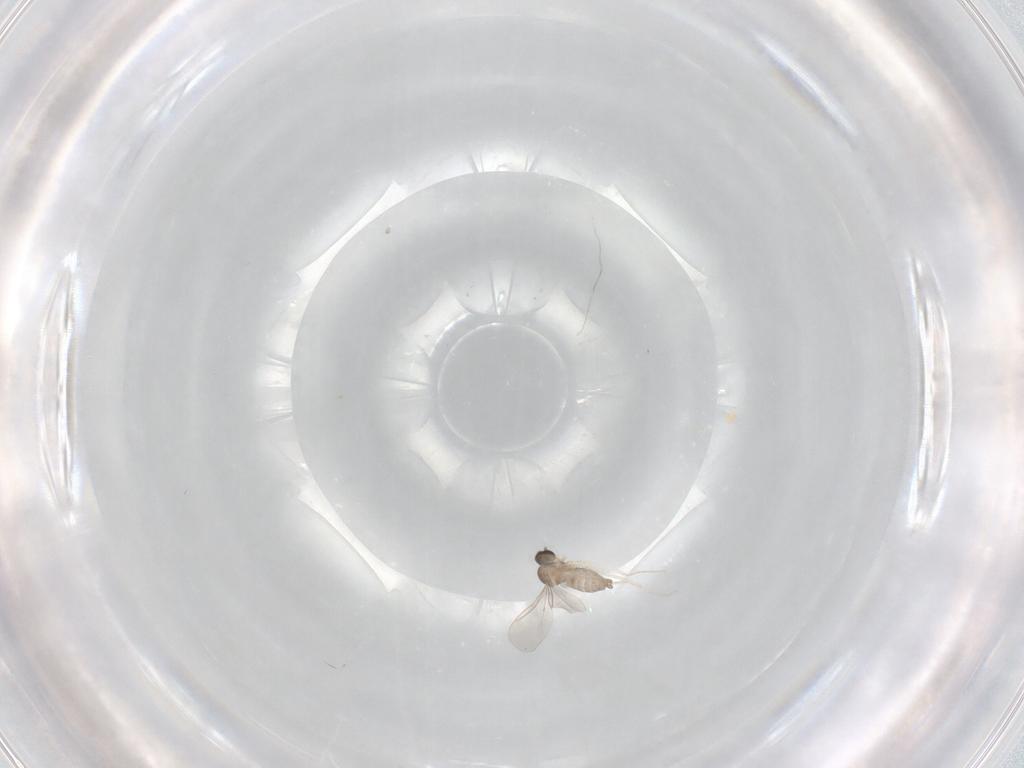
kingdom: Animalia
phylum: Arthropoda
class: Insecta
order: Diptera
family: Cecidomyiidae
